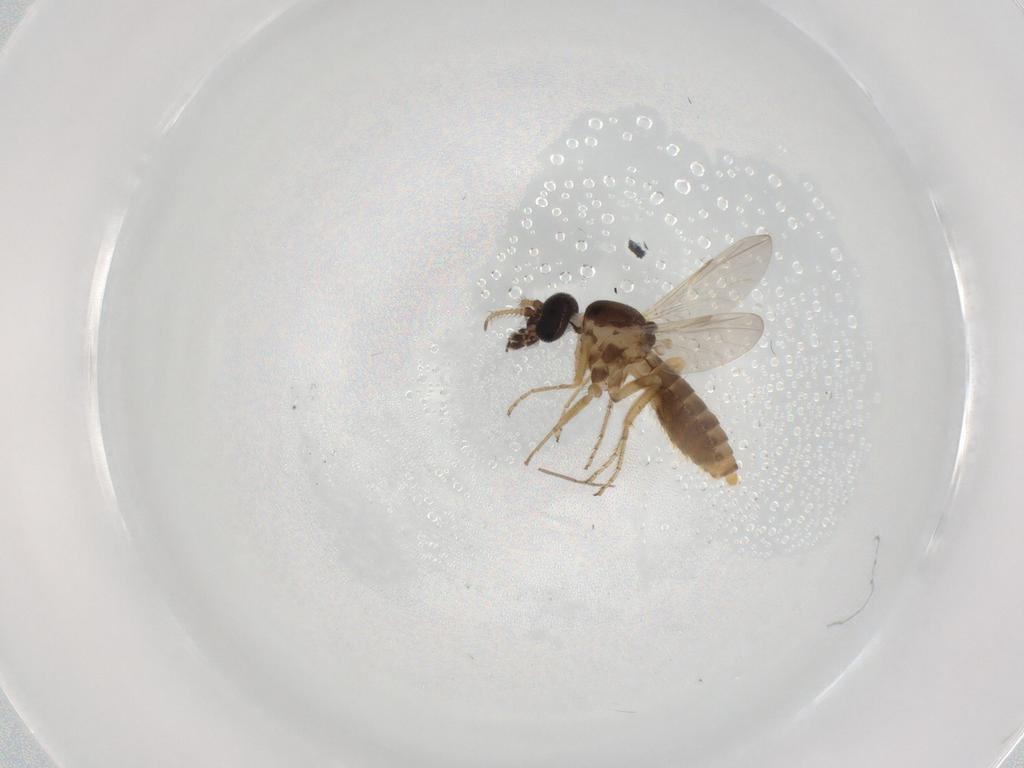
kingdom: Animalia
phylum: Arthropoda
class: Insecta
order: Diptera
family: Ceratopogonidae
